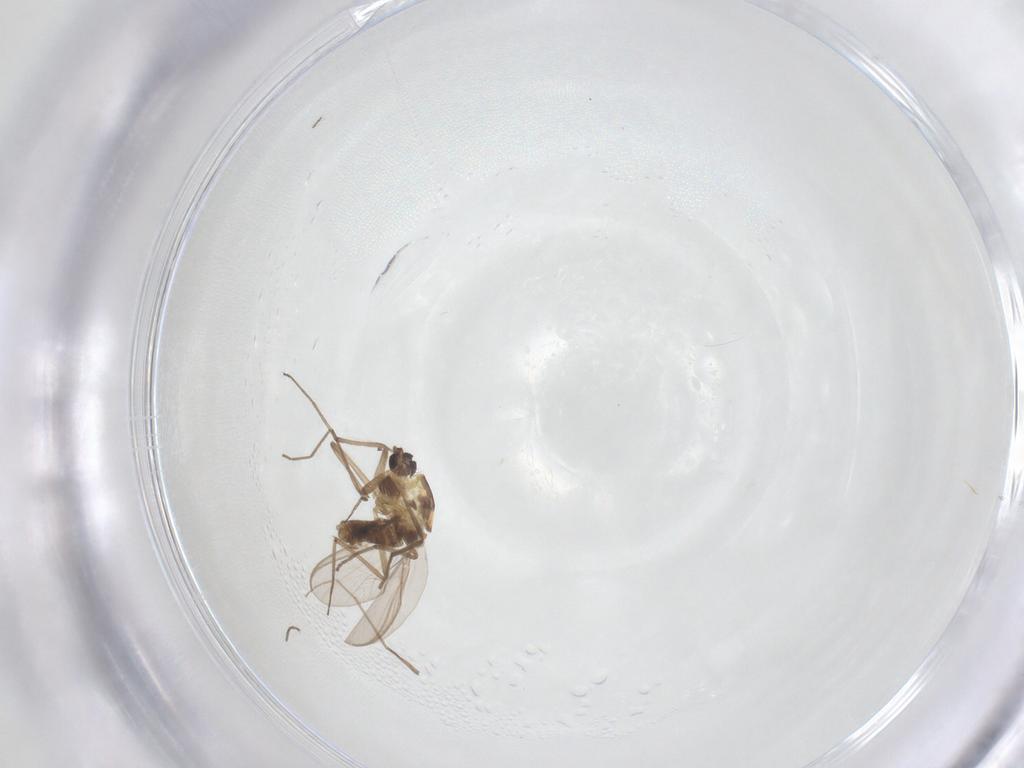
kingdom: Animalia
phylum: Arthropoda
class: Insecta
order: Diptera
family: Chironomidae
